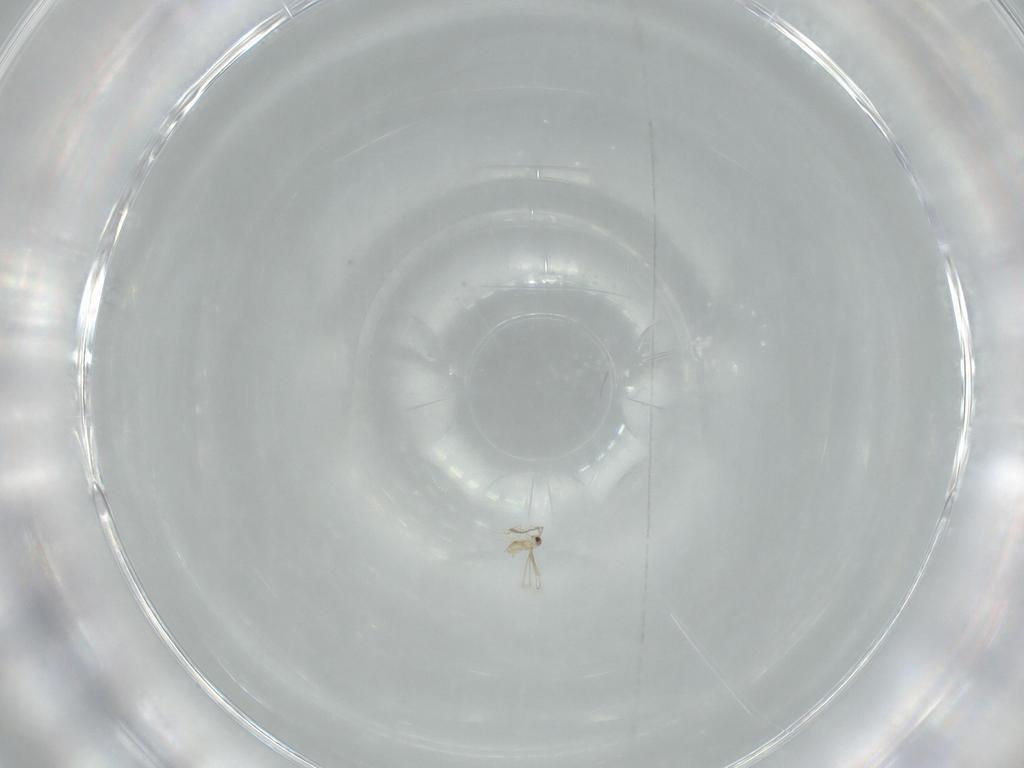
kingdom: Animalia
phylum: Arthropoda
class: Insecta
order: Hymenoptera
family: Mymaridae
